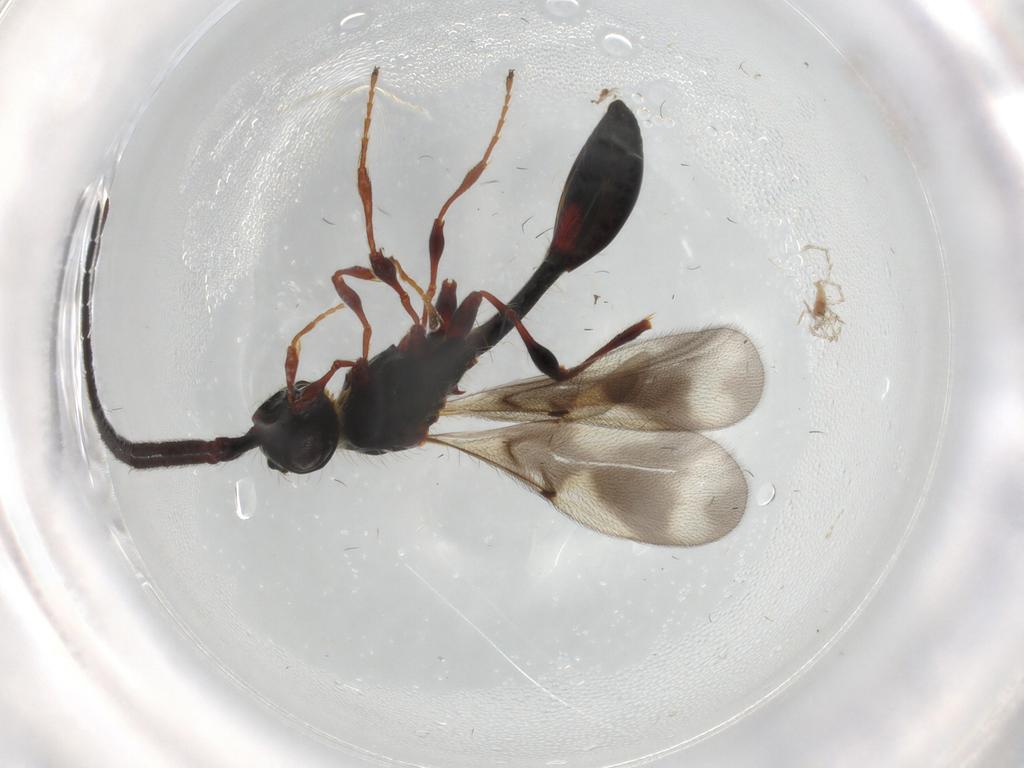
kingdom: Animalia
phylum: Arthropoda
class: Insecta
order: Hymenoptera
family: Diapriidae
